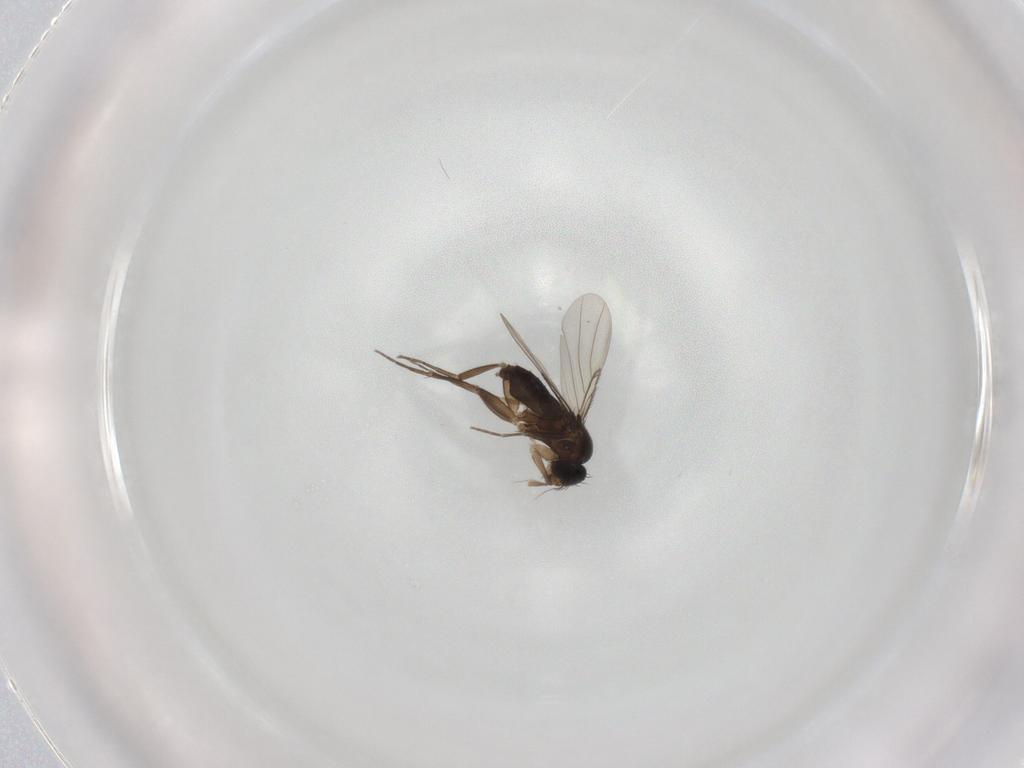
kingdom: Animalia
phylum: Arthropoda
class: Insecta
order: Diptera
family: Phoridae
